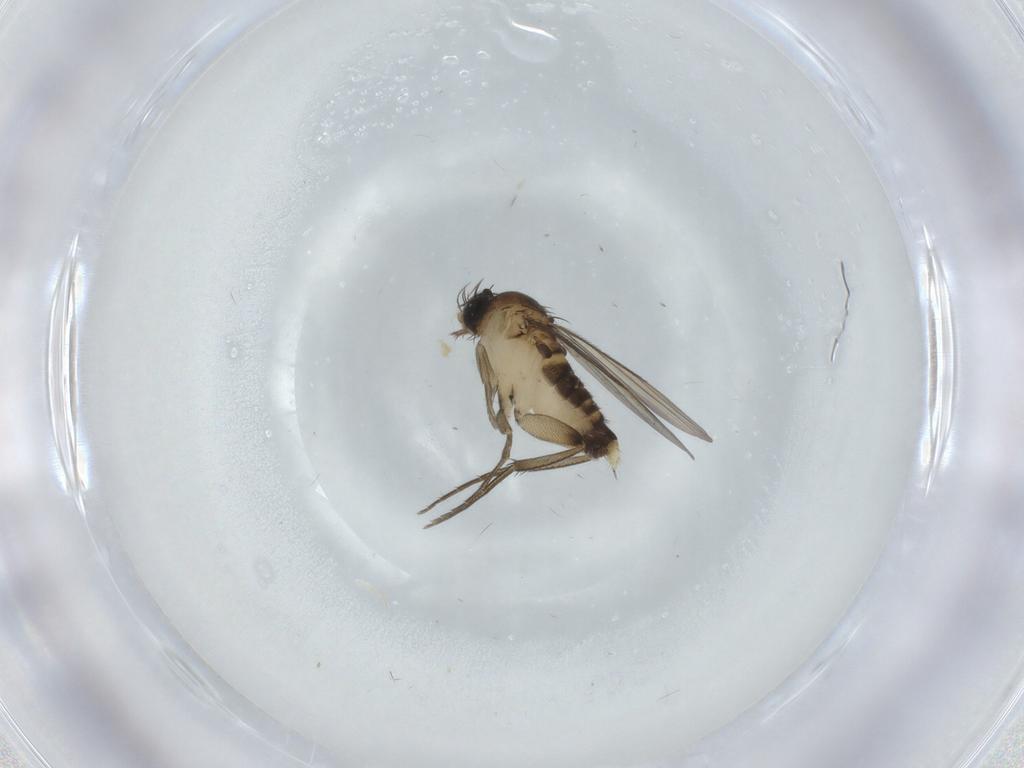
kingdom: Animalia
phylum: Arthropoda
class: Insecta
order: Diptera
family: Phoridae
